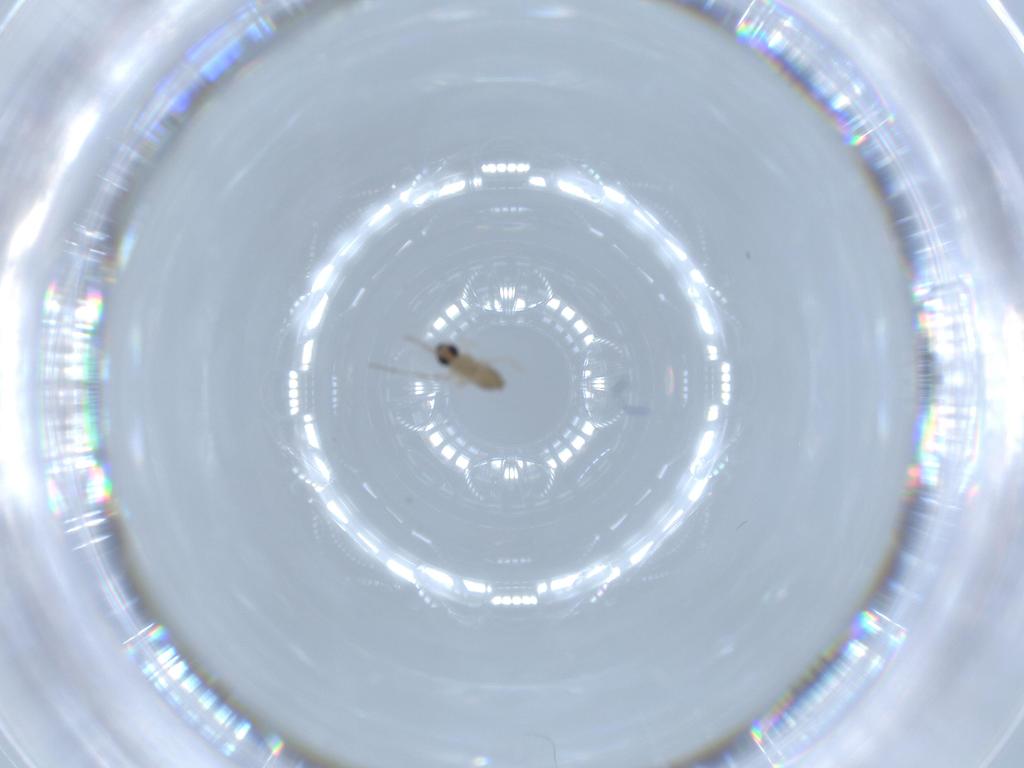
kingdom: Animalia
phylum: Arthropoda
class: Insecta
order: Diptera
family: Cecidomyiidae
